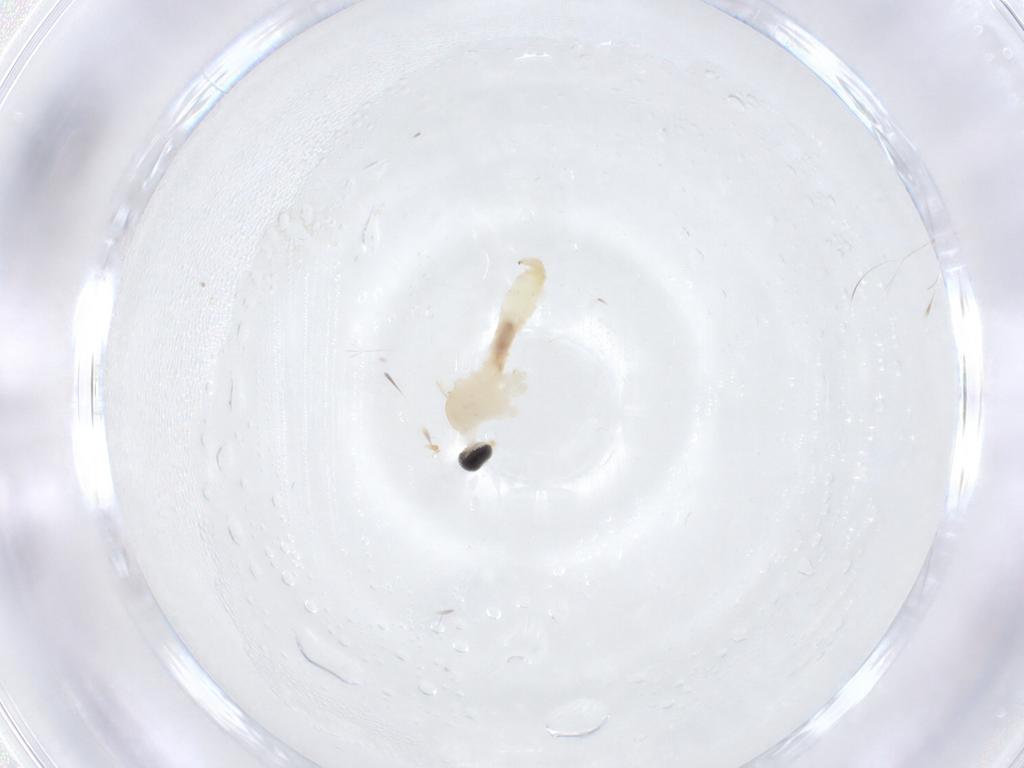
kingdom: Animalia
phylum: Arthropoda
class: Insecta
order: Diptera
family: Cecidomyiidae
